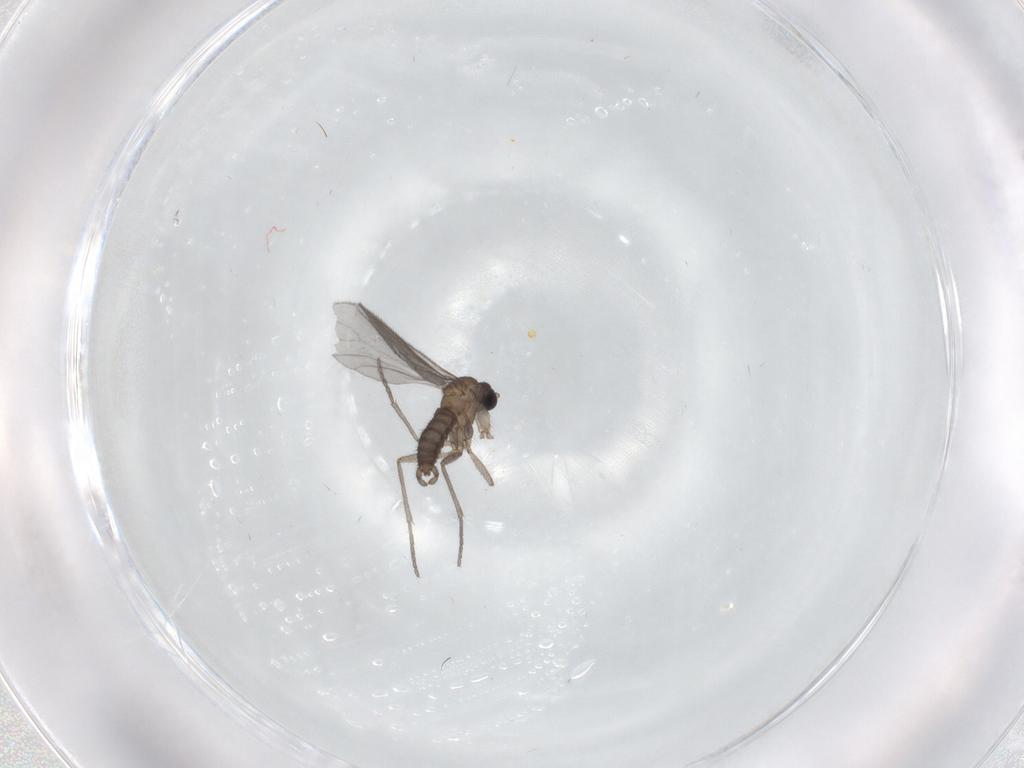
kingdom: Animalia
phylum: Arthropoda
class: Insecta
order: Diptera
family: Sciaridae
